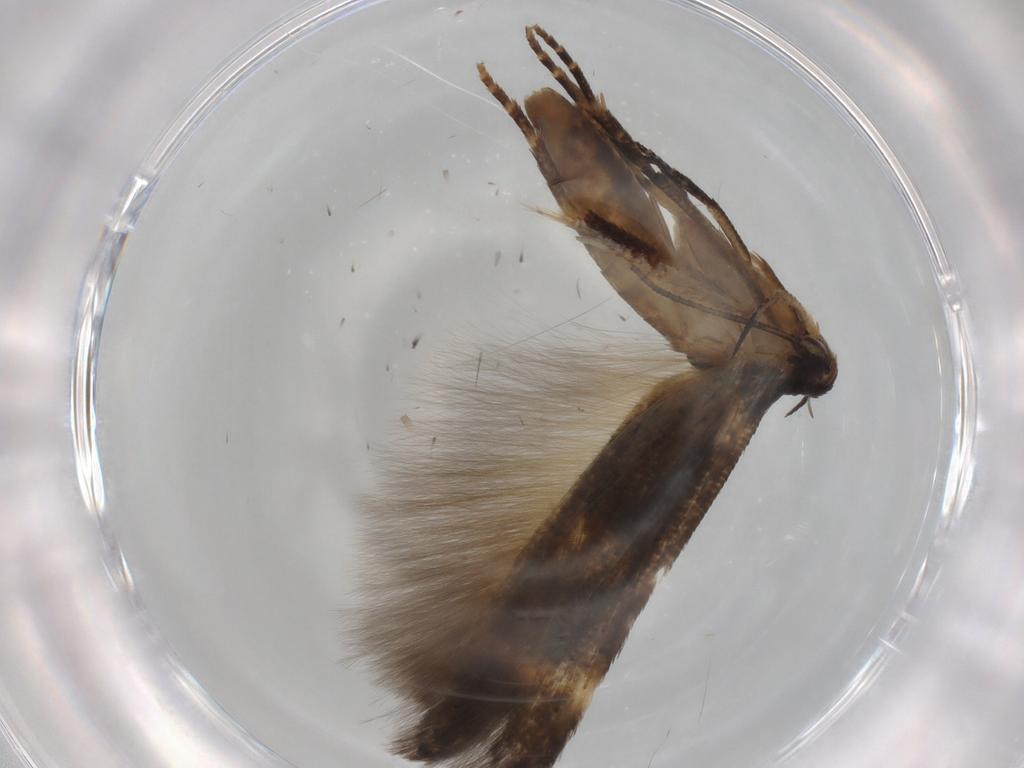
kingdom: Animalia
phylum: Arthropoda
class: Insecta
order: Lepidoptera
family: Cosmopterigidae
